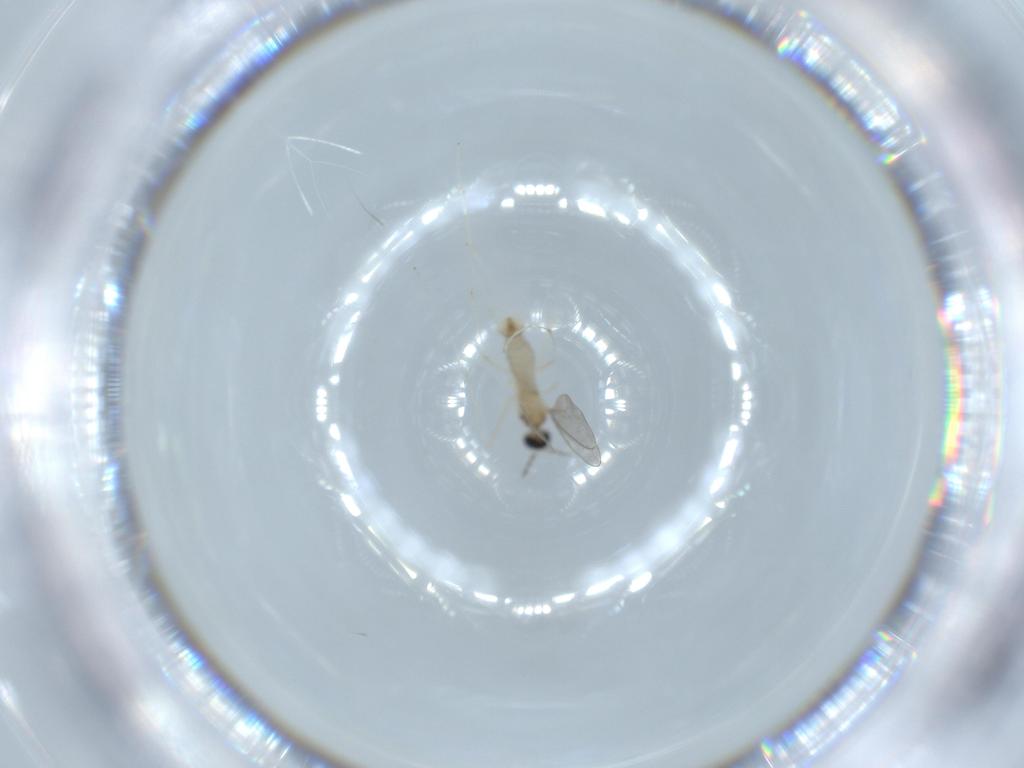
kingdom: Animalia
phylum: Arthropoda
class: Insecta
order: Diptera
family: Cecidomyiidae
